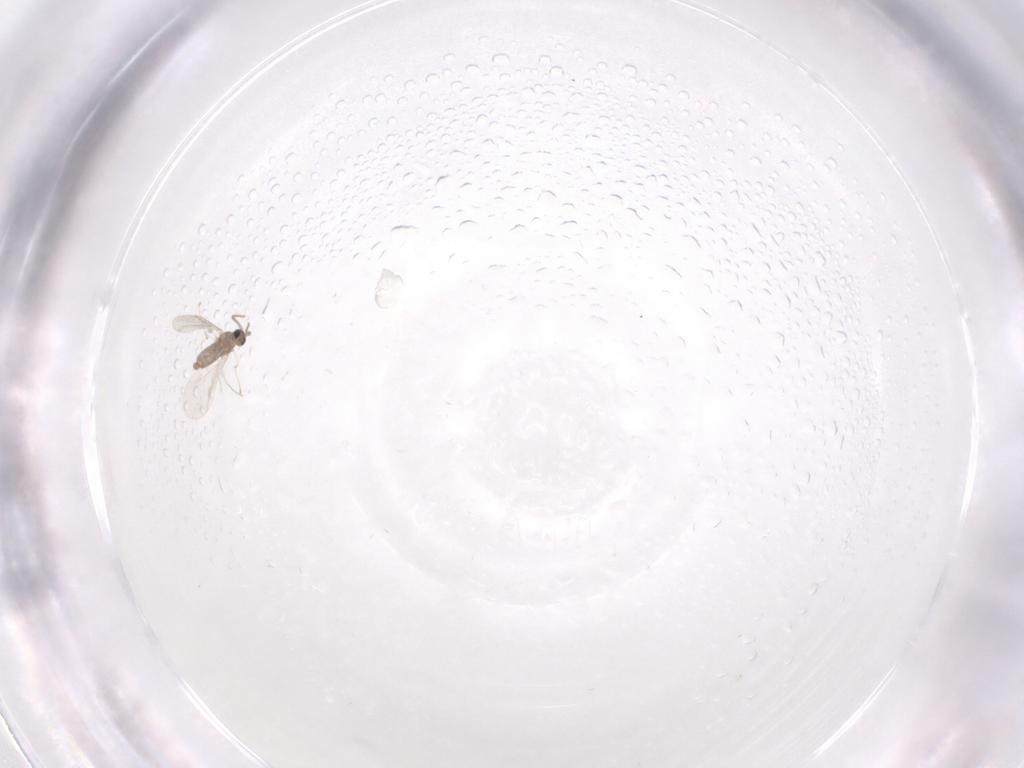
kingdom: Animalia
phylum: Arthropoda
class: Insecta
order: Diptera
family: Cecidomyiidae
